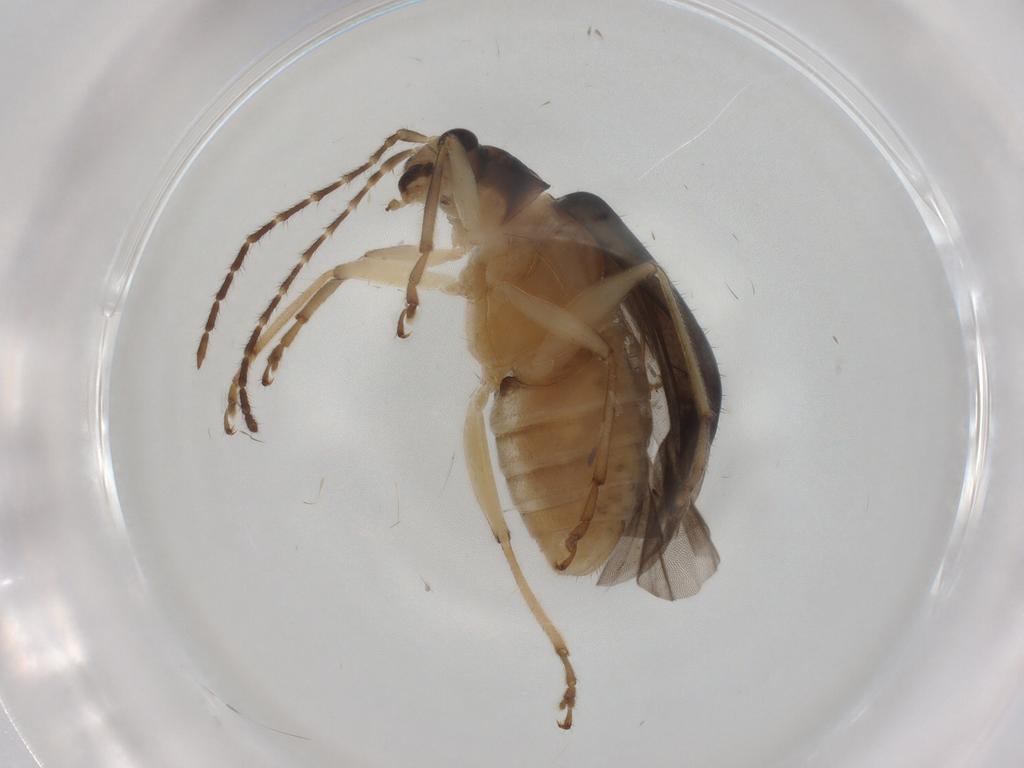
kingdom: Animalia
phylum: Arthropoda
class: Insecta
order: Coleoptera
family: Chrysomelidae
